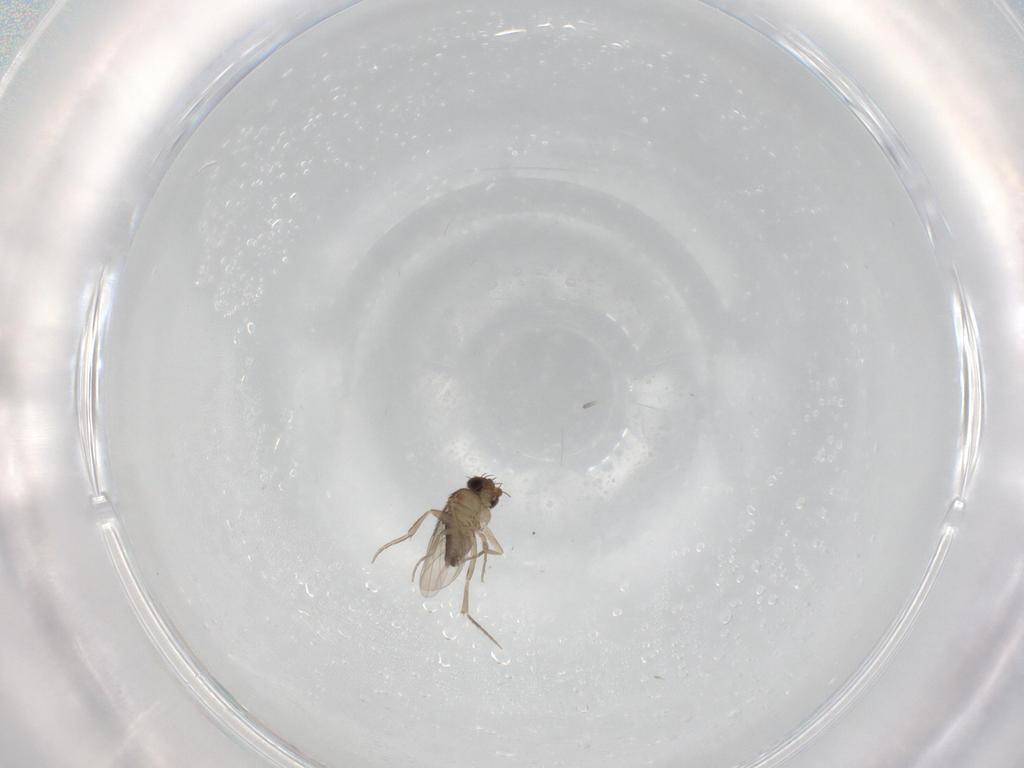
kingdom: Animalia
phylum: Arthropoda
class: Insecta
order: Diptera
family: Phoridae
